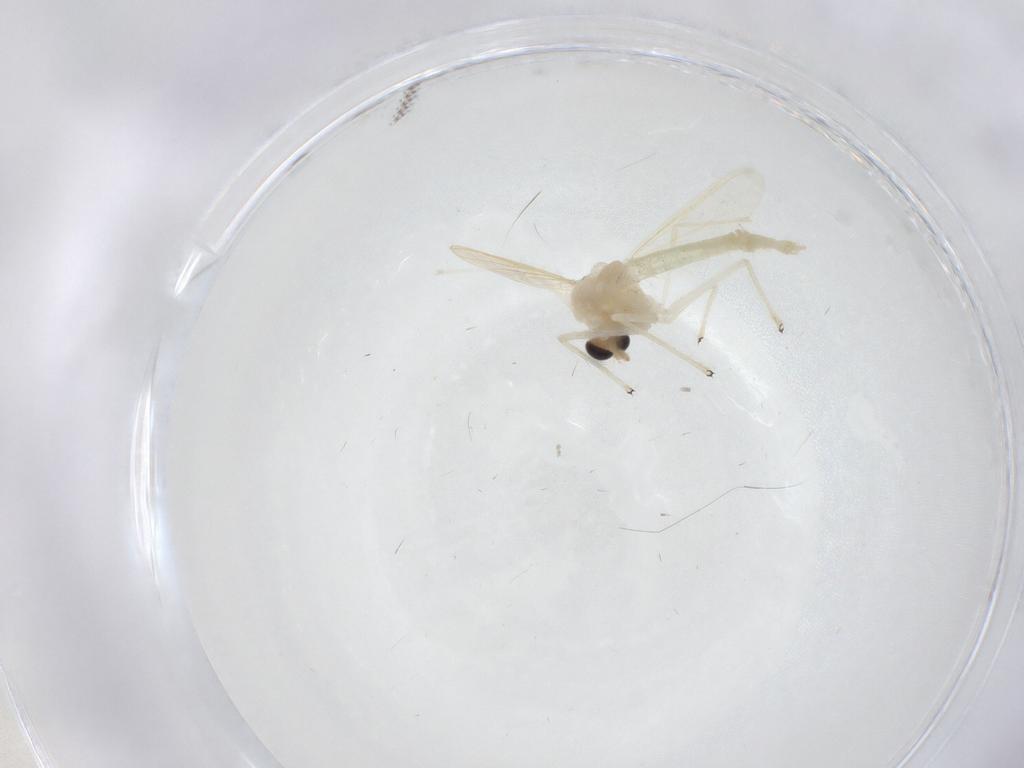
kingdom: Animalia
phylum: Arthropoda
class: Insecta
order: Diptera
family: Chironomidae
